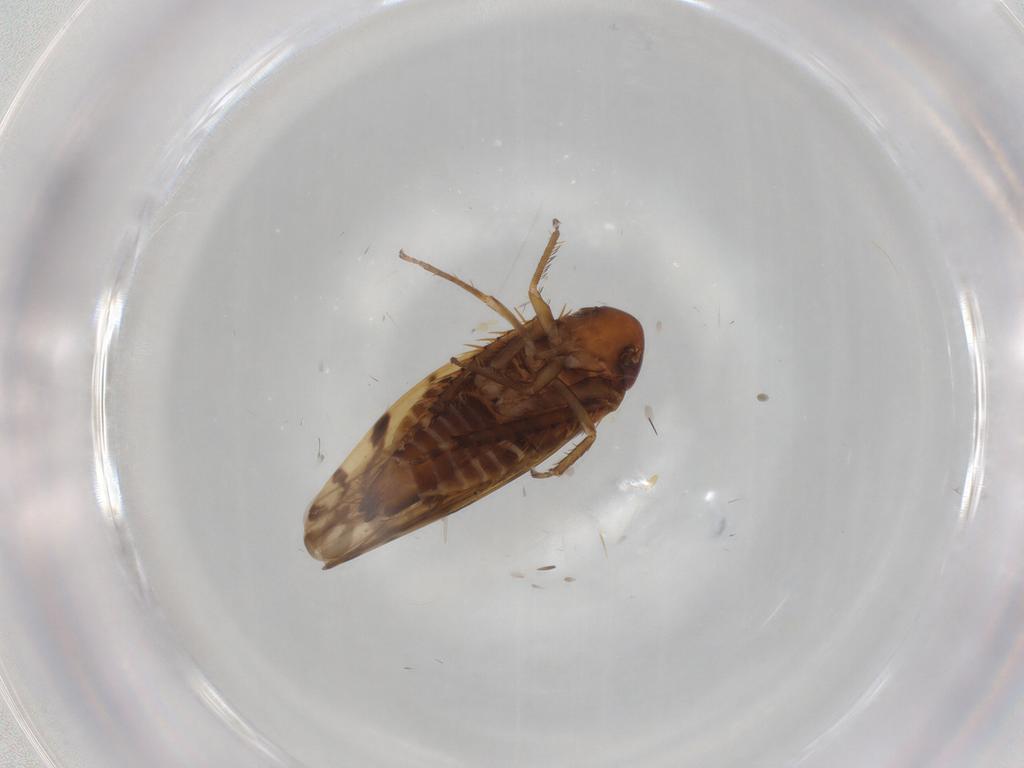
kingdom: Animalia
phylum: Arthropoda
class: Insecta
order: Hemiptera
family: Cicadellidae
